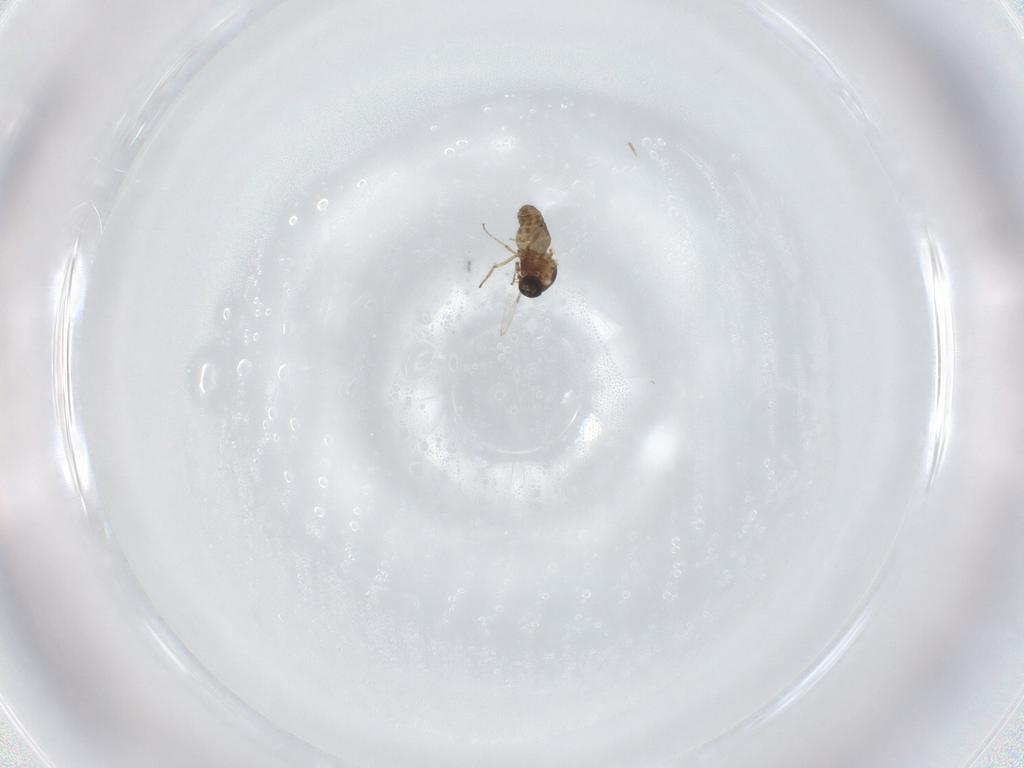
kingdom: Animalia
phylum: Arthropoda
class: Insecta
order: Diptera
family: Ceratopogonidae
